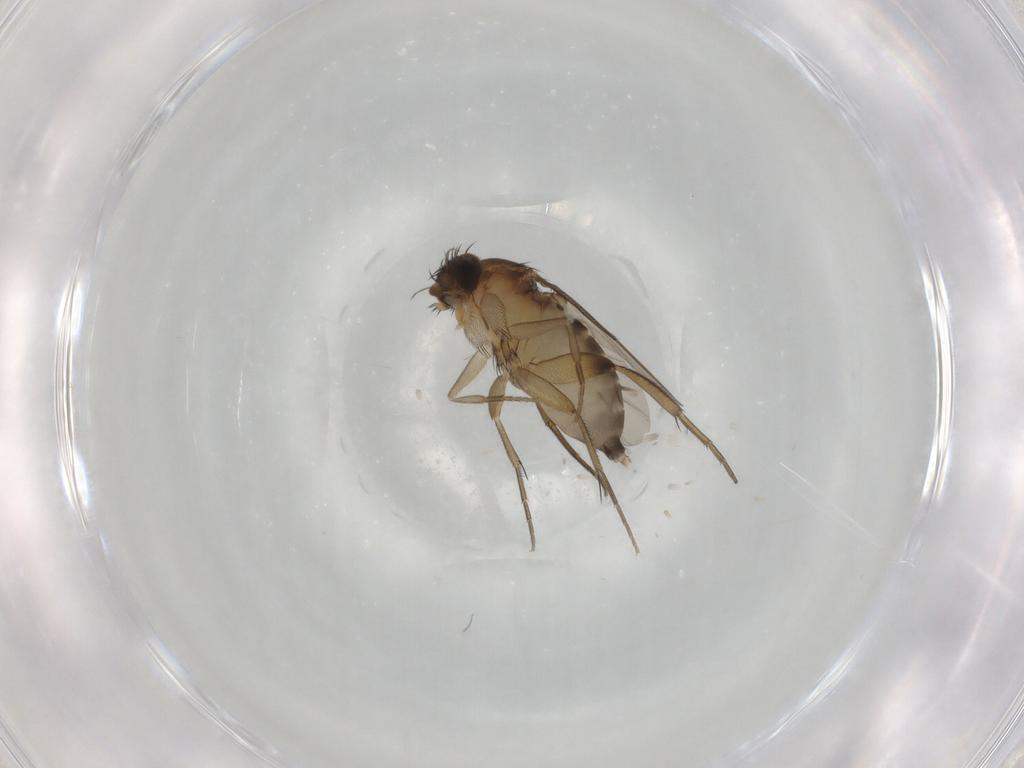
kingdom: Animalia
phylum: Arthropoda
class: Insecta
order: Diptera
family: Phoridae
